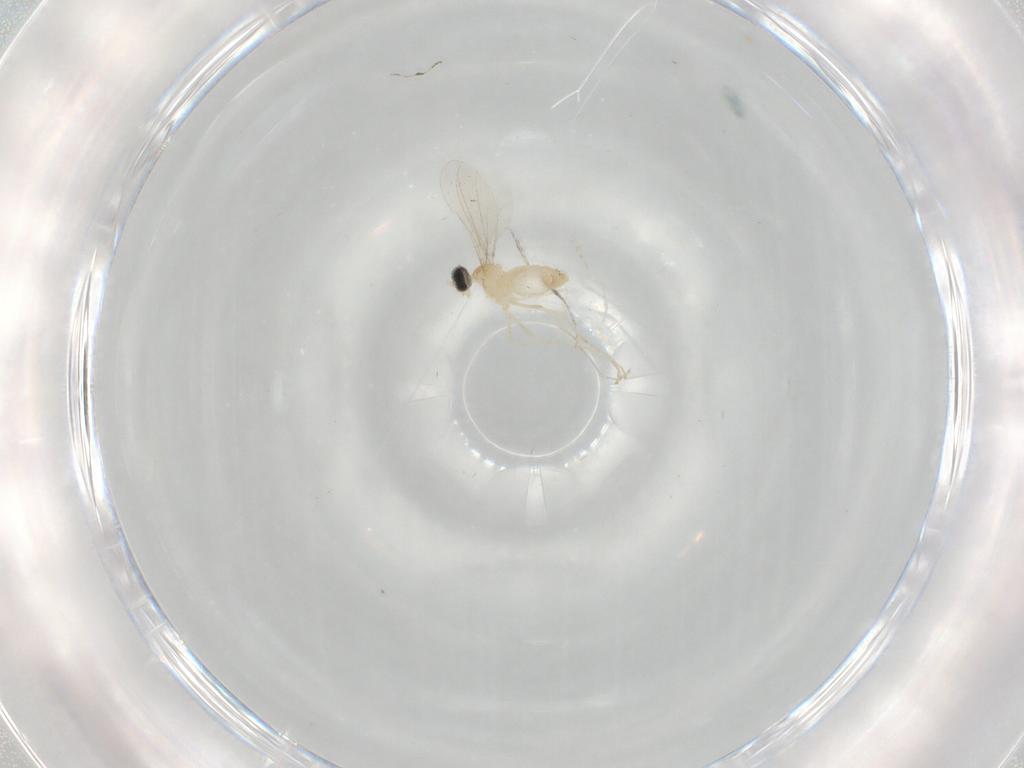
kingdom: Animalia
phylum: Arthropoda
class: Insecta
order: Diptera
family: Cecidomyiidae
